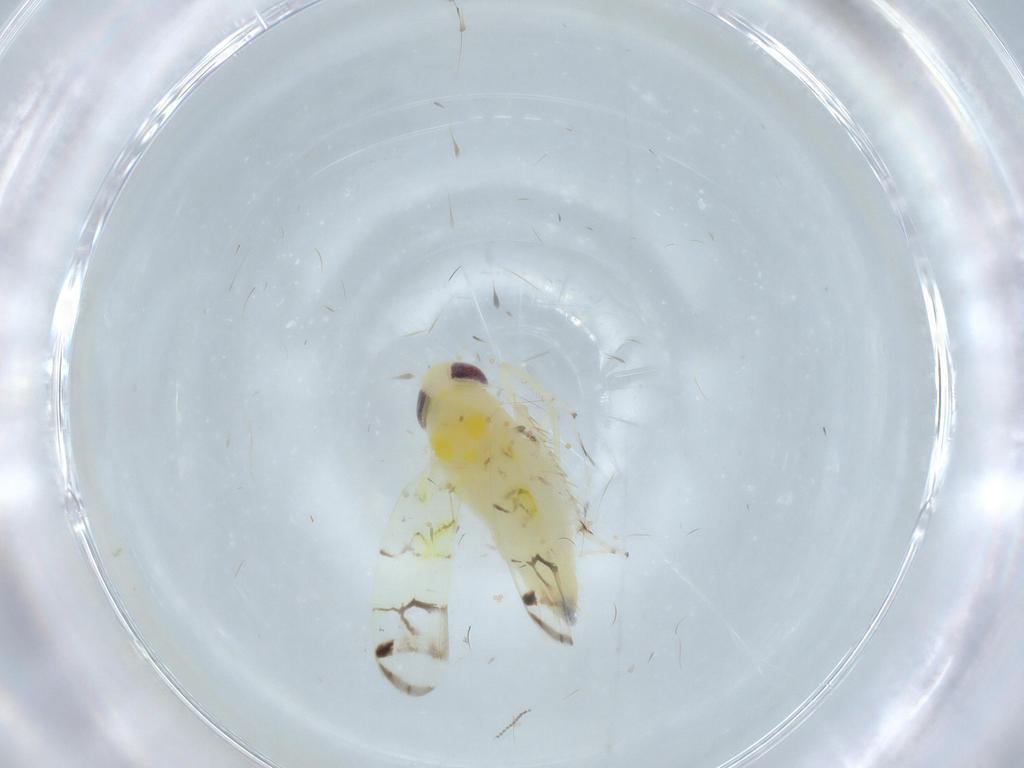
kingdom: Animalia
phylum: Arthropoda
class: Insecta
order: Hemiptera
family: Cicadellidae
